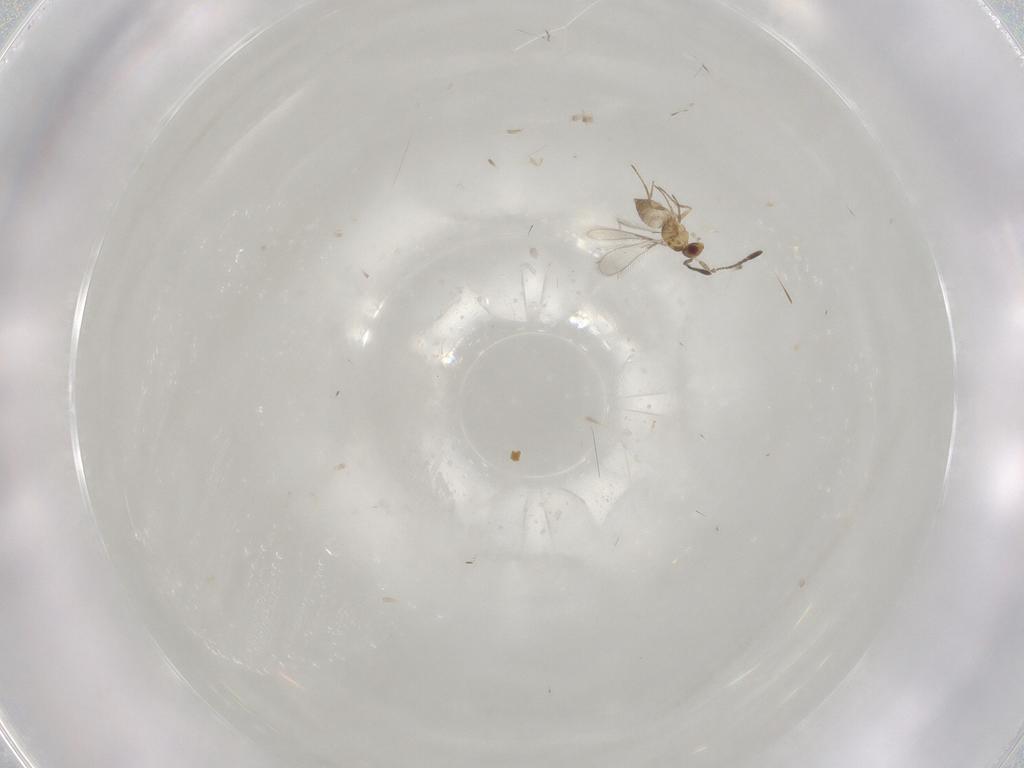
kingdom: Animalia
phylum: Arthropoda
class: Insecta
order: Hymenoptera
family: Mymaridae
